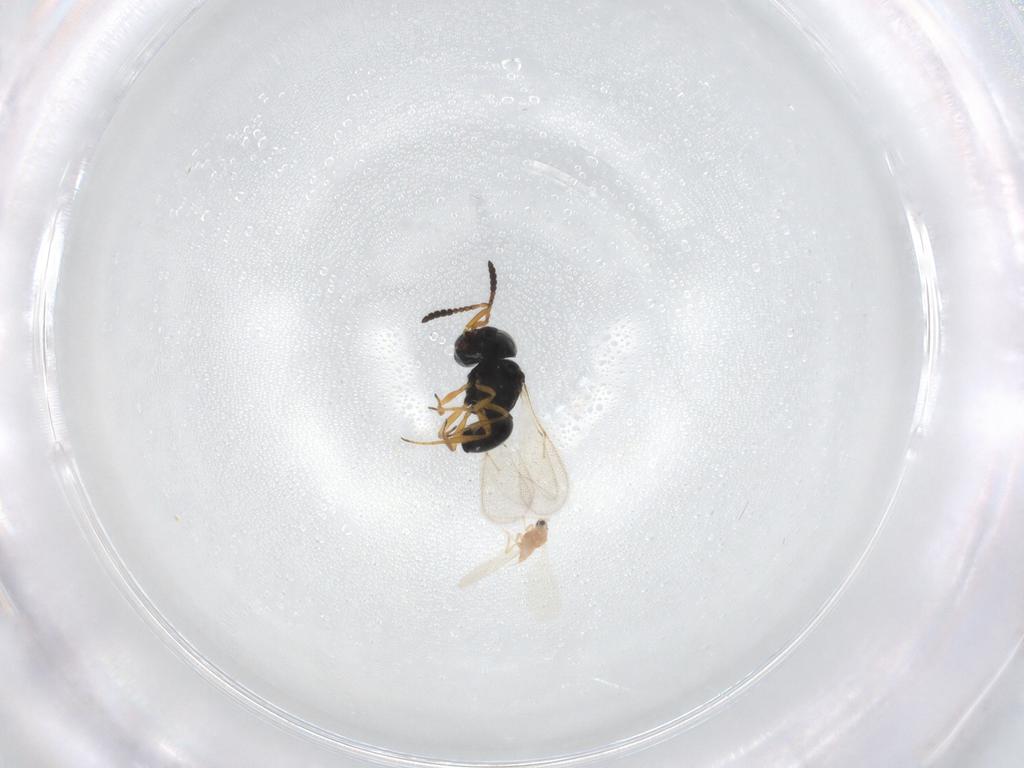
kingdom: Animalia
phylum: Arthropoda
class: Insecta
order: Hymenoptera
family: Scelionidae
